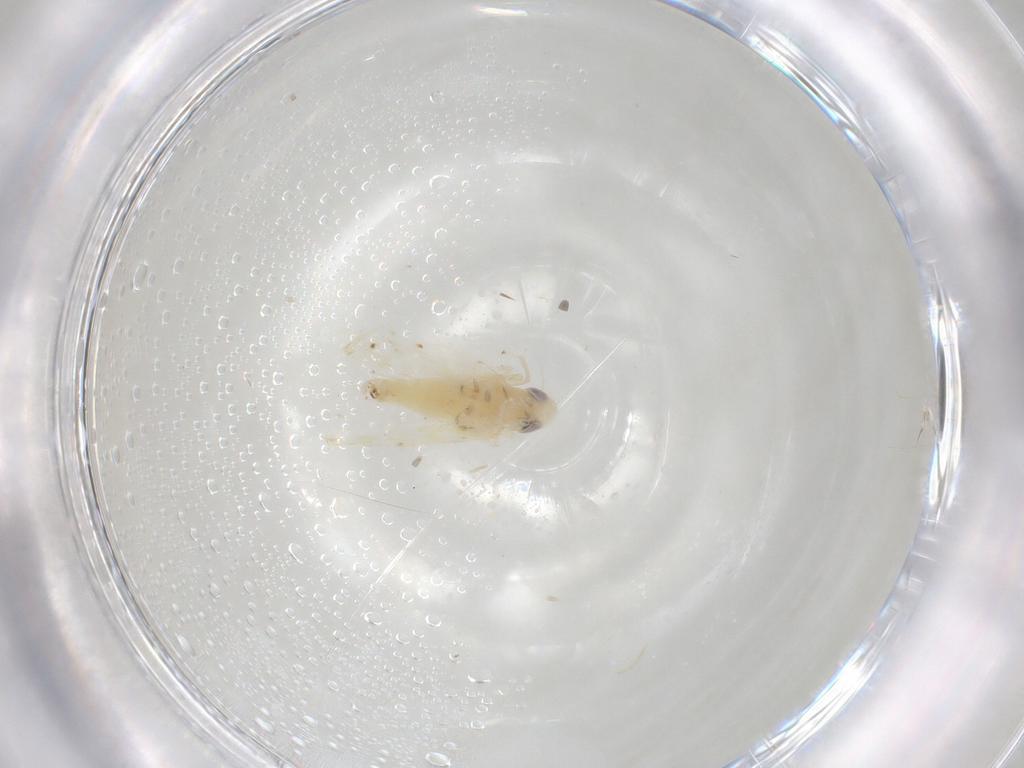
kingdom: Animalia
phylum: Arthropoda
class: Insecta
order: Hemiptera
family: Cicadellidae
